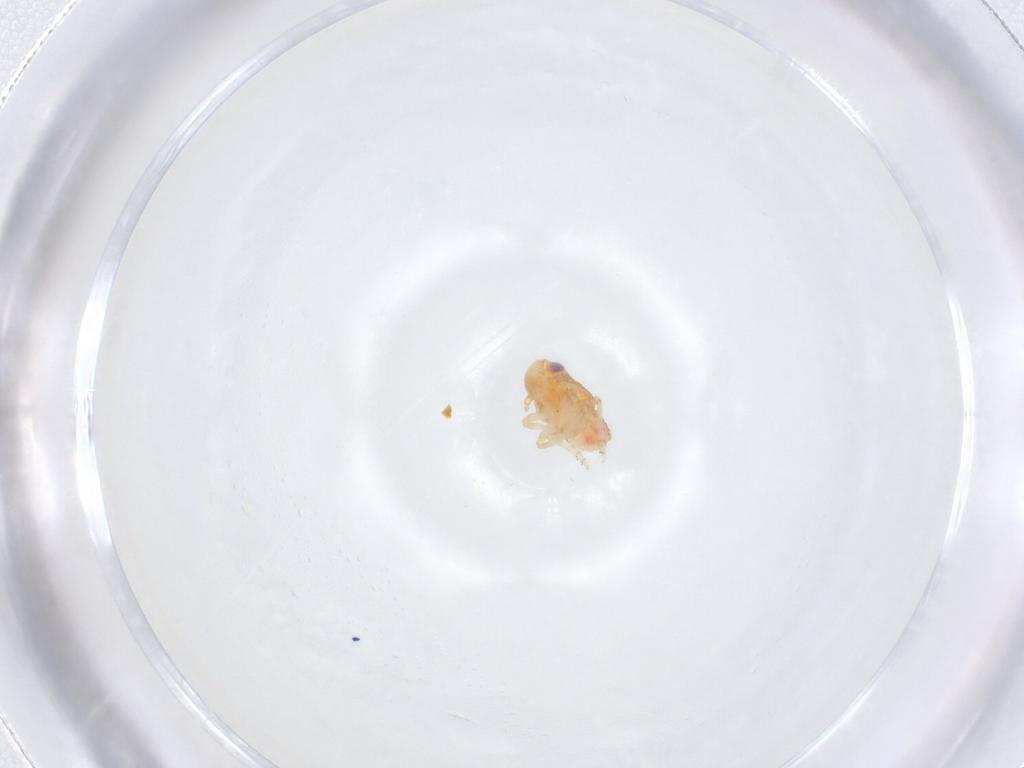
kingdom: Animalia
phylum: Arthropoda
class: Insecta
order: Hemiptera
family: Issidae
